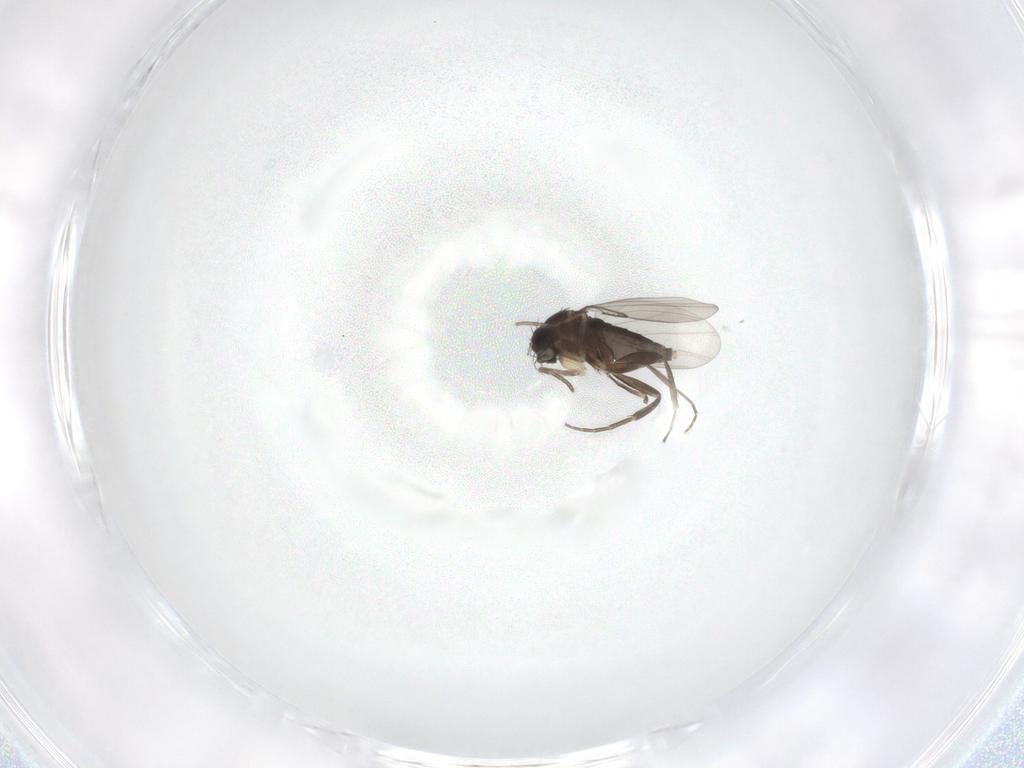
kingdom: Animalia
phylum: Arthropoda
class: Insecta
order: Diptera
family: Phoridae
